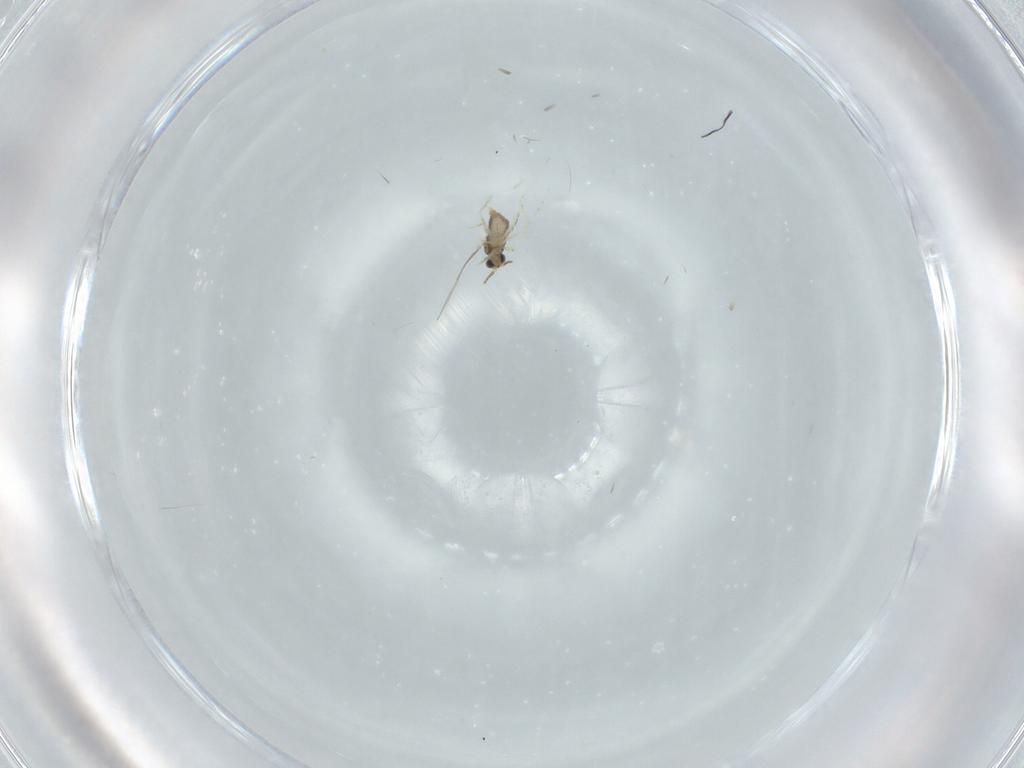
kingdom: Animalia
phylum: Arthropoda
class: Insecta
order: Diptera
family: Cecidomyiidae
